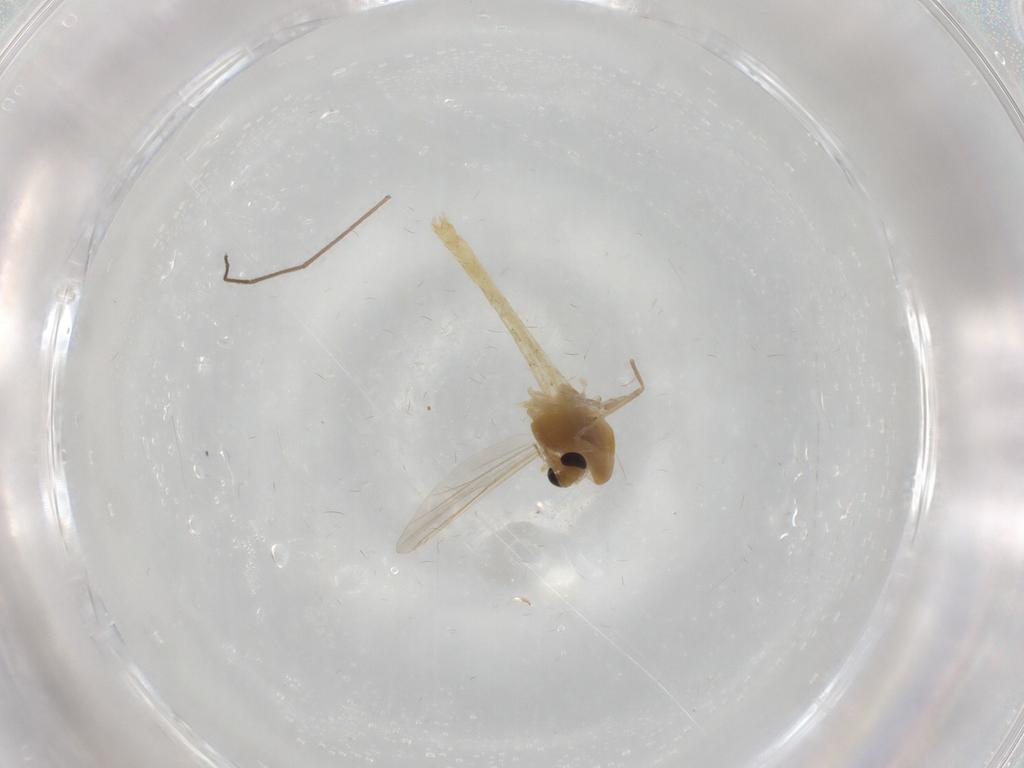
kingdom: Animalia
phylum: Arthropoda
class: Insecta
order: Diptera
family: Chironomidae
